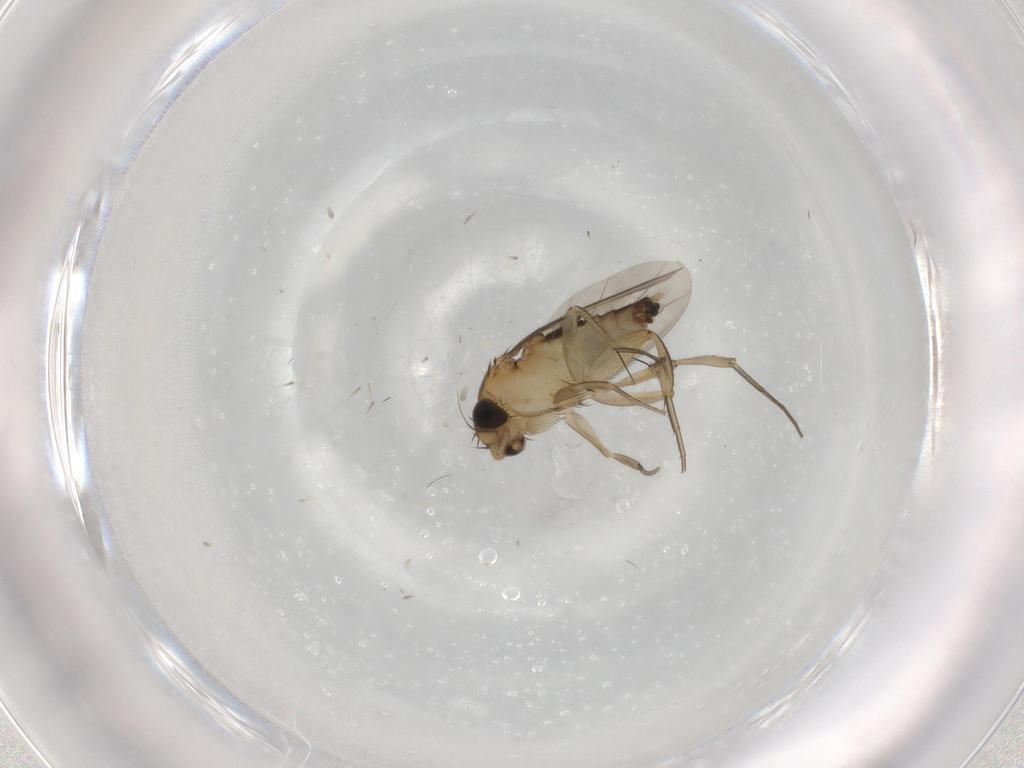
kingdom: Animalia
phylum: Arthropoda
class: Insecta
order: Diptera
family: Phoridae
